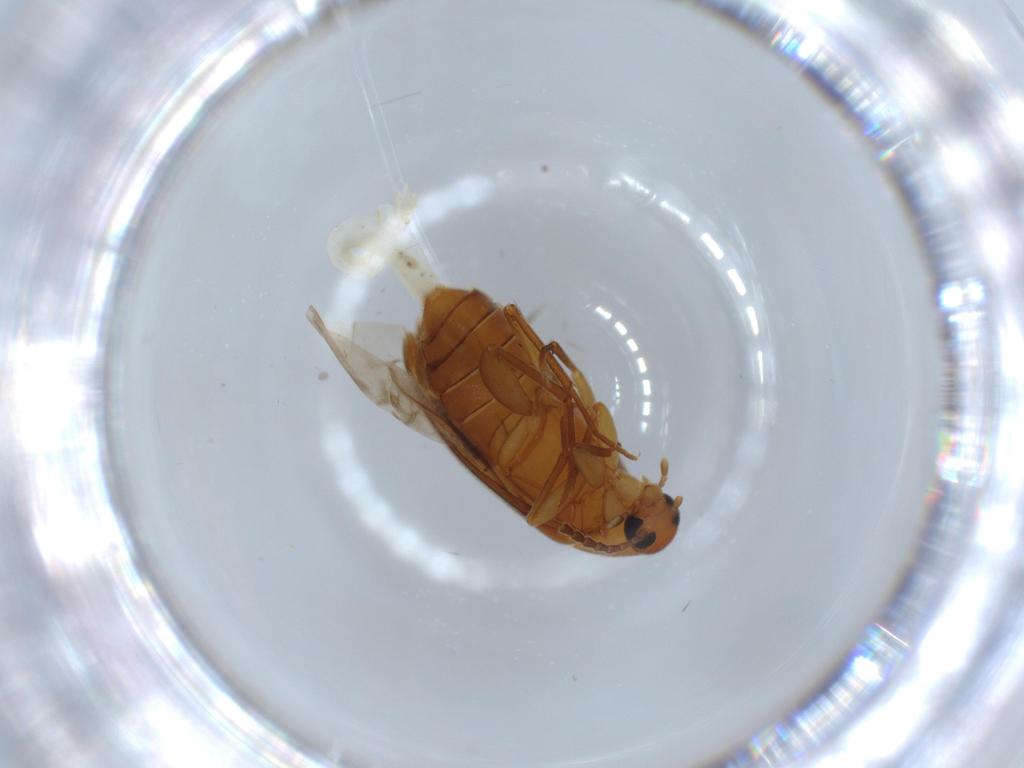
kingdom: Animalia
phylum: Arthropoda
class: Insecta
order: Coleoptera
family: Scraptiidae
